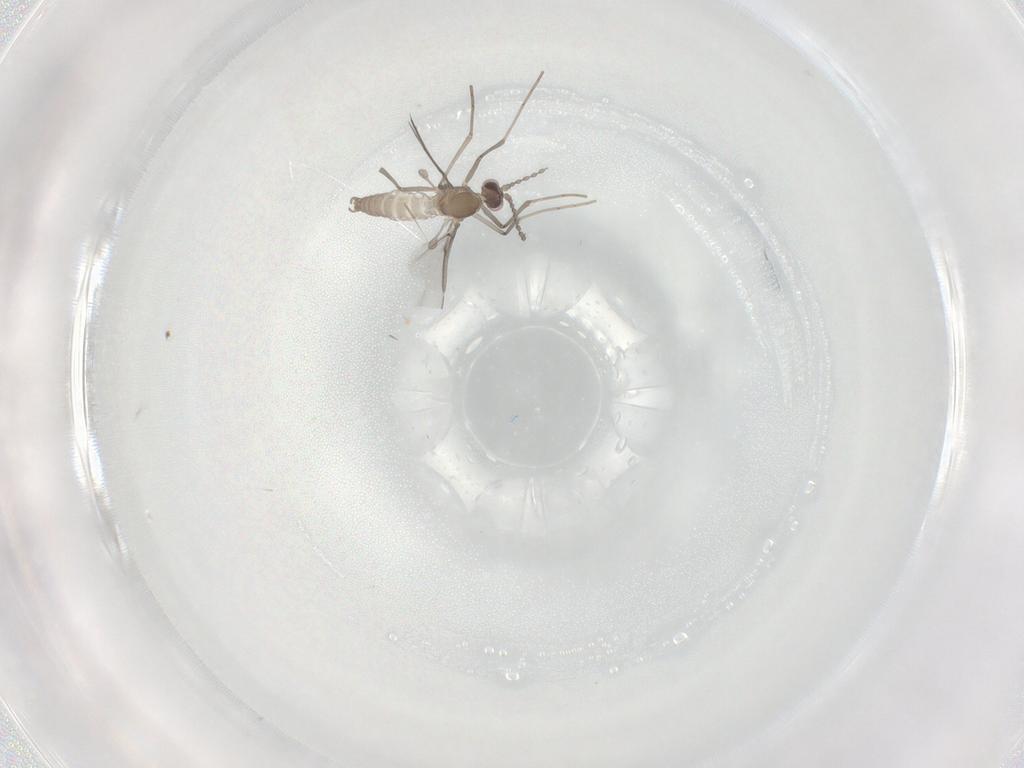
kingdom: Animalia
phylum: Arthropoda
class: Insecta
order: Diptera
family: Cecidomyiidae
